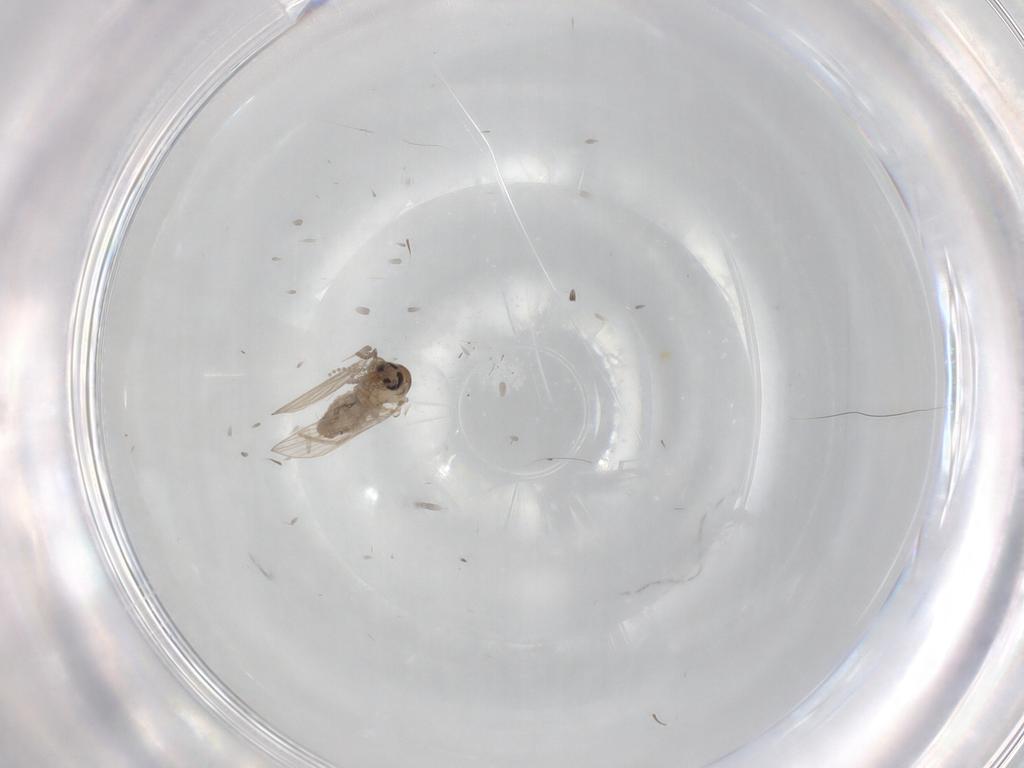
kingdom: Animalia
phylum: Arthropoda
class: Insecta
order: Diptera
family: Psychodidae
